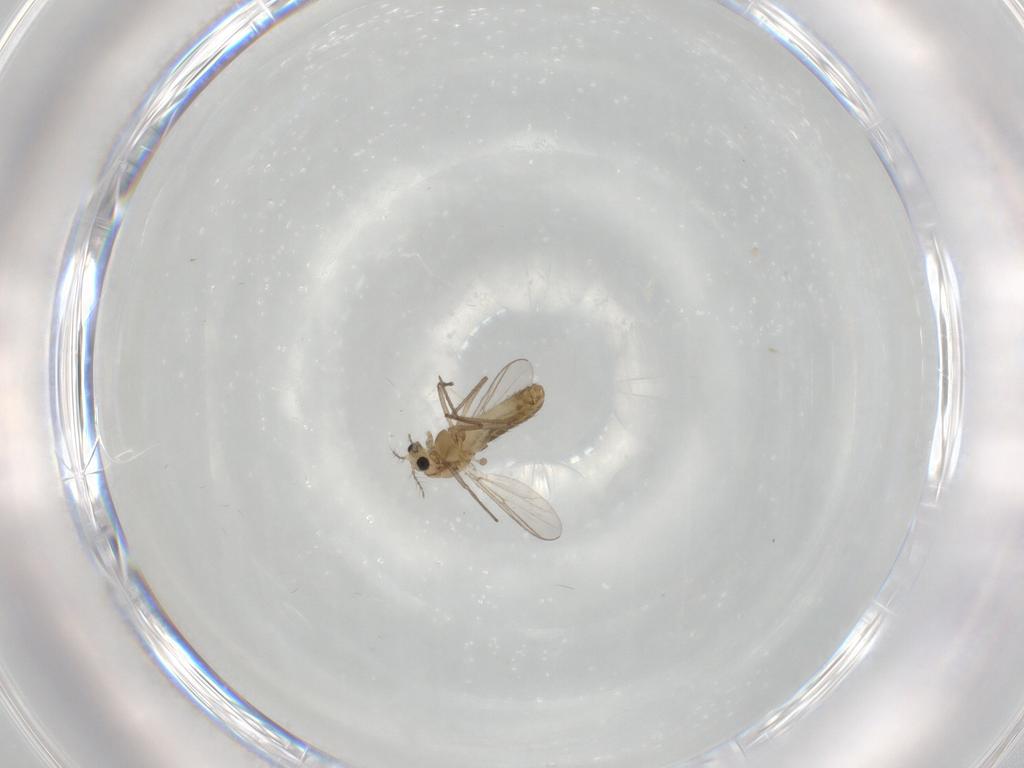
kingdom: Animalia
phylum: Arthropoda
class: Insecta
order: Diptera
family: Chironomidae
